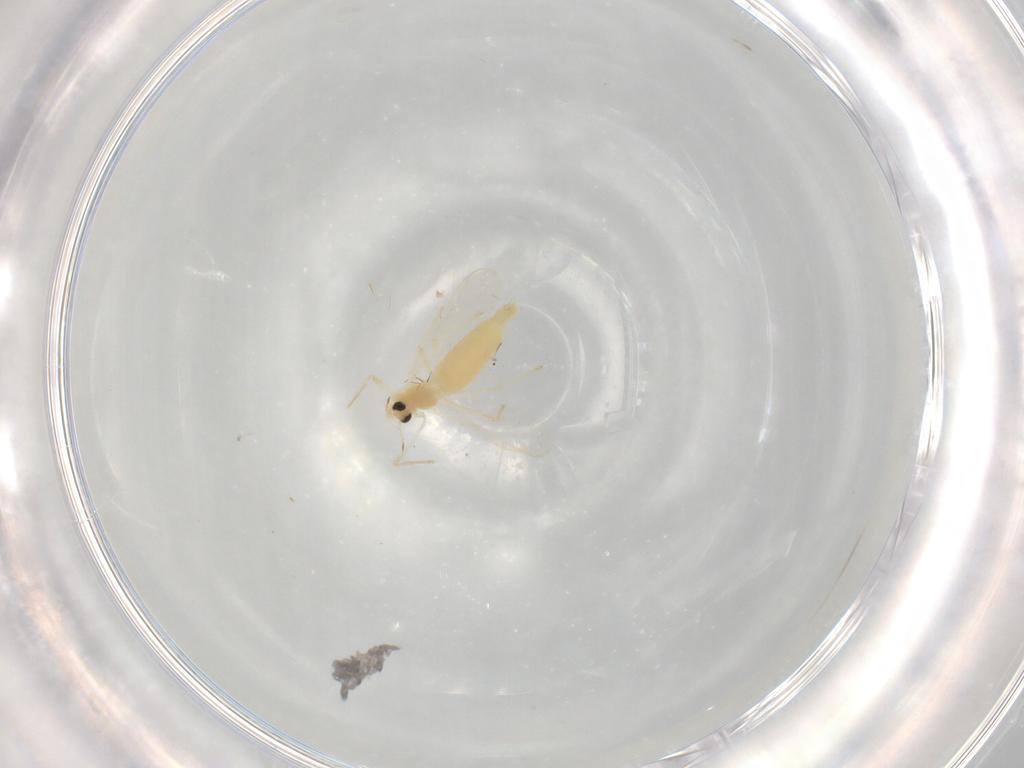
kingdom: Animalia
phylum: Arthropoda
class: Insecta
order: Diptera
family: Chironomidae
